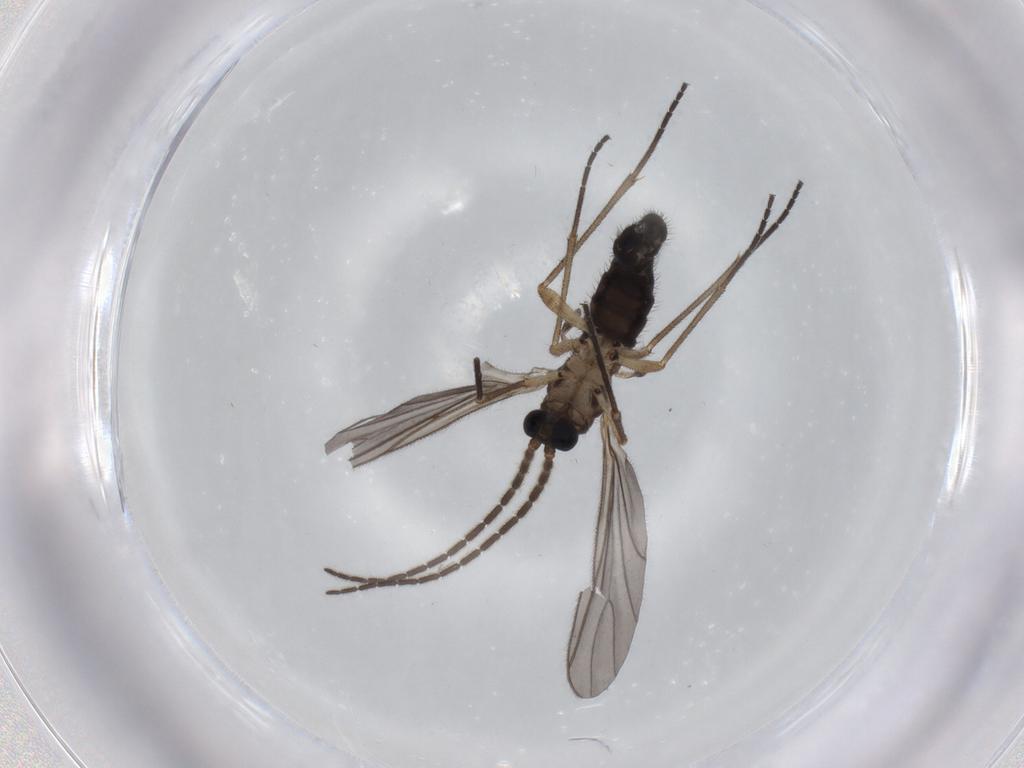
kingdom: Animalia
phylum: Arthropoda
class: Insecta
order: Diptera
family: Sciaridae
